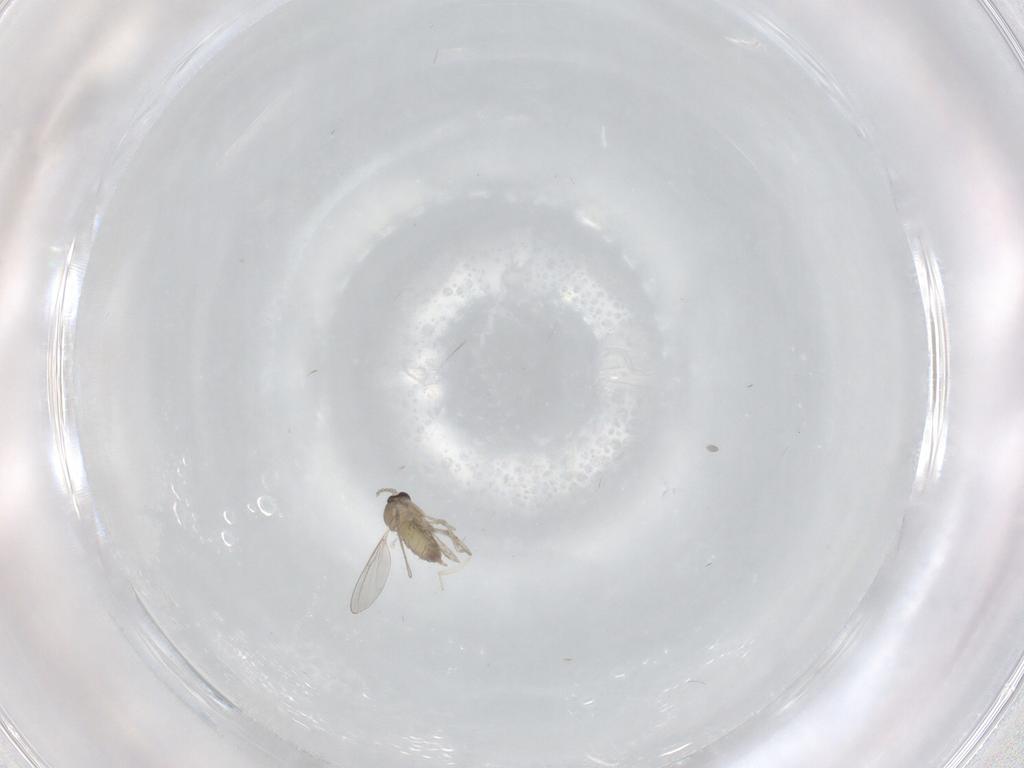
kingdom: Animalia
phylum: Arthropoda
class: Insecta
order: Diptera
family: Cecidomyiidae
